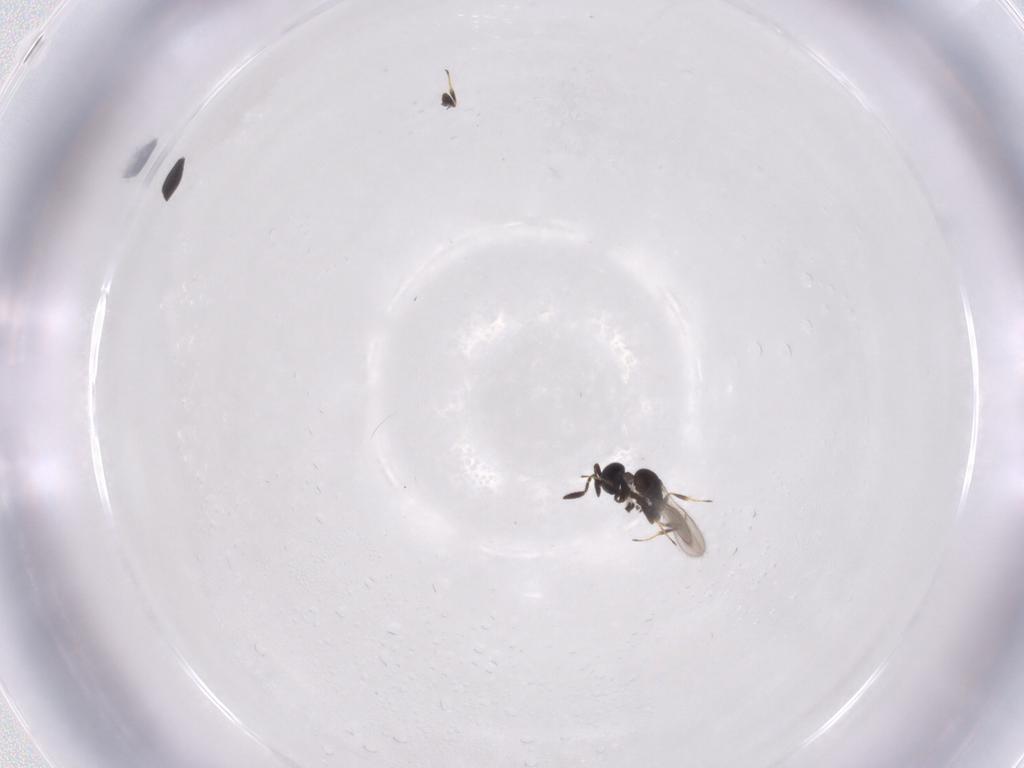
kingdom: Animalia
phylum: Arthropoda
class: Insecta
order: Hymenoptera
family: Scelionidae
